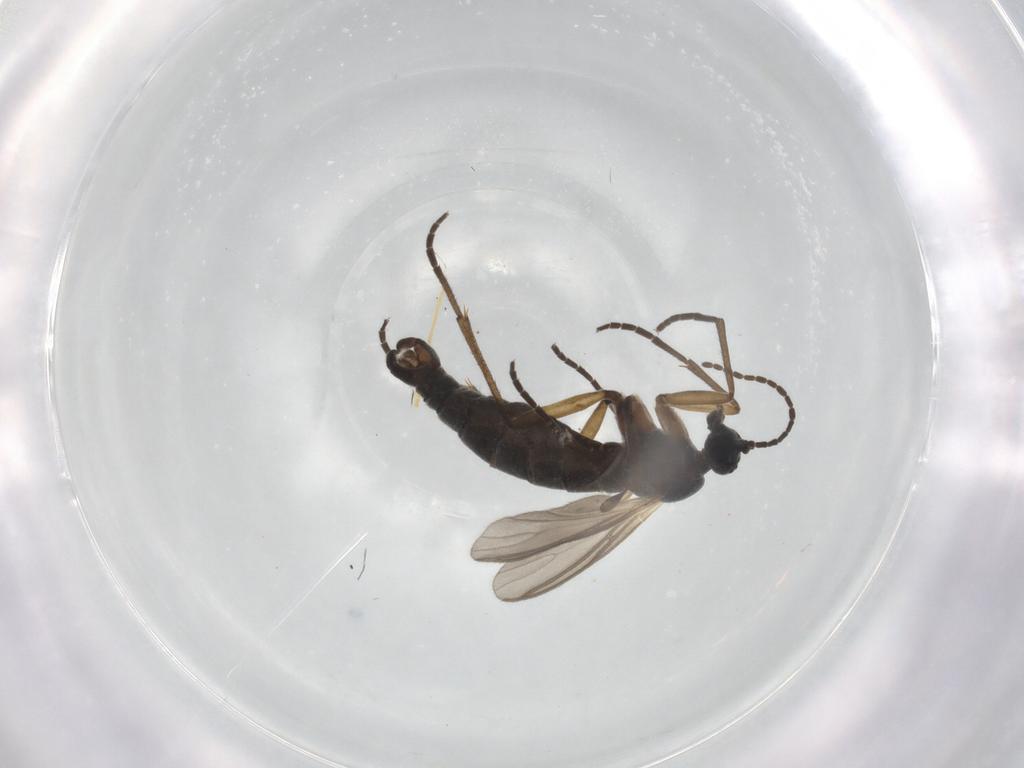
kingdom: Animalia
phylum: Arthropoda
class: Insecta
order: Diptera
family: Sciaridae
